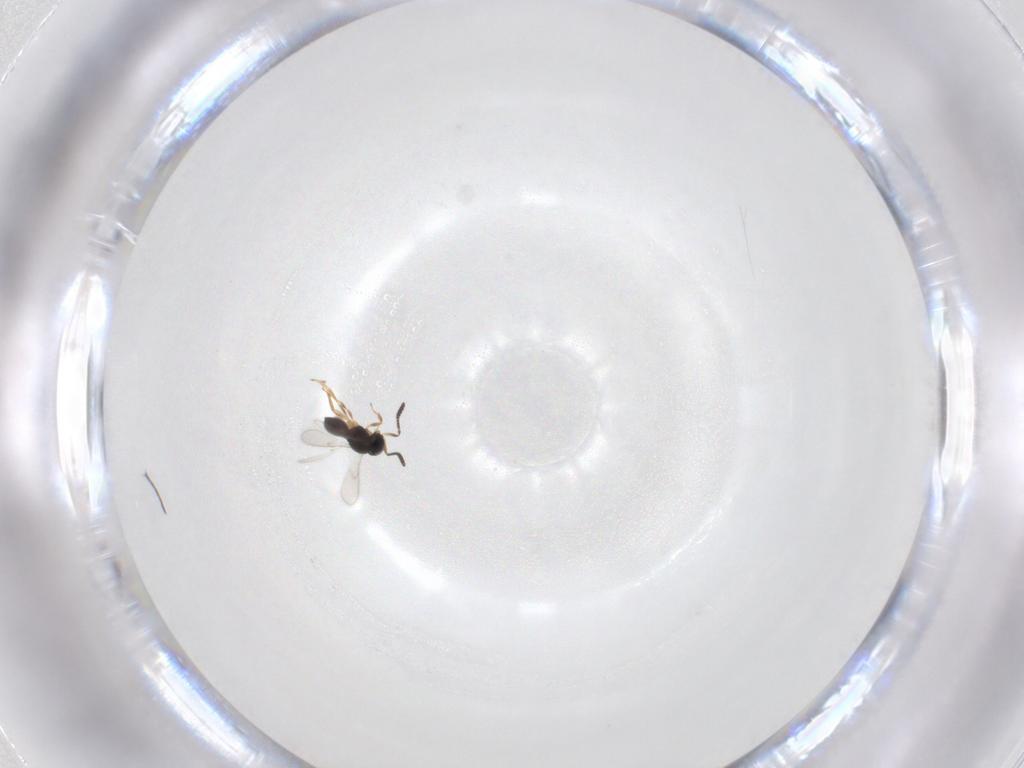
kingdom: Animalia
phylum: Arthropoda
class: Insecta
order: Hymenoptera
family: Scelionidae
